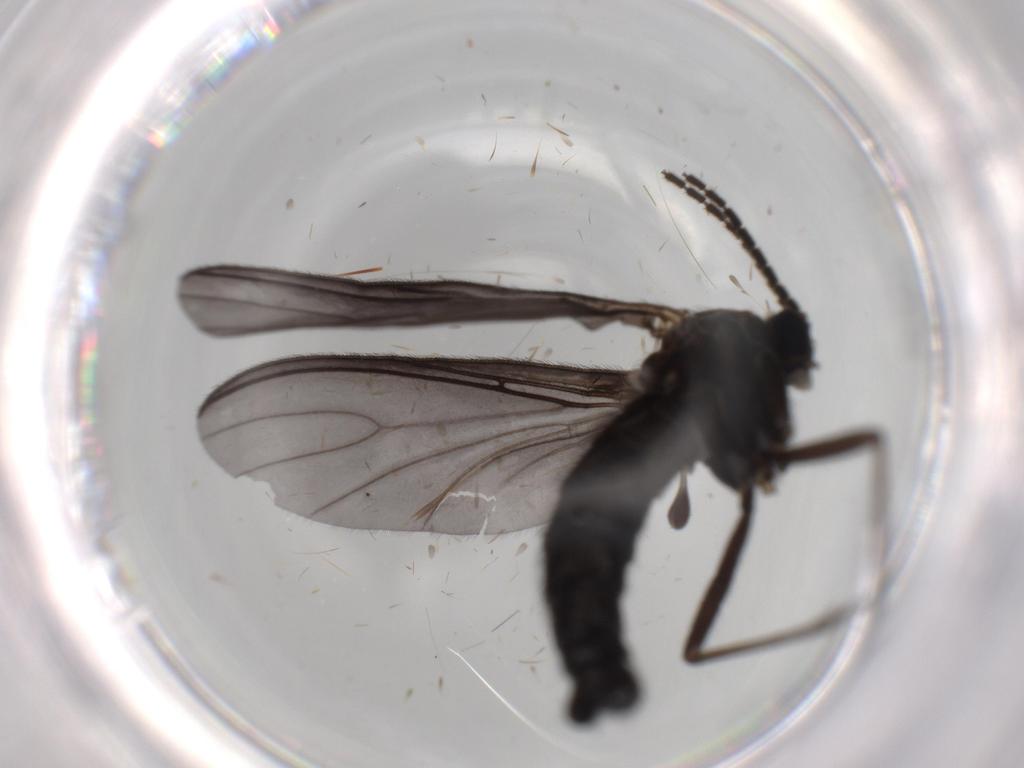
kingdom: Animalia
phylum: Arthropoda
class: Insecta
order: Diptera
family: Sciaridae
